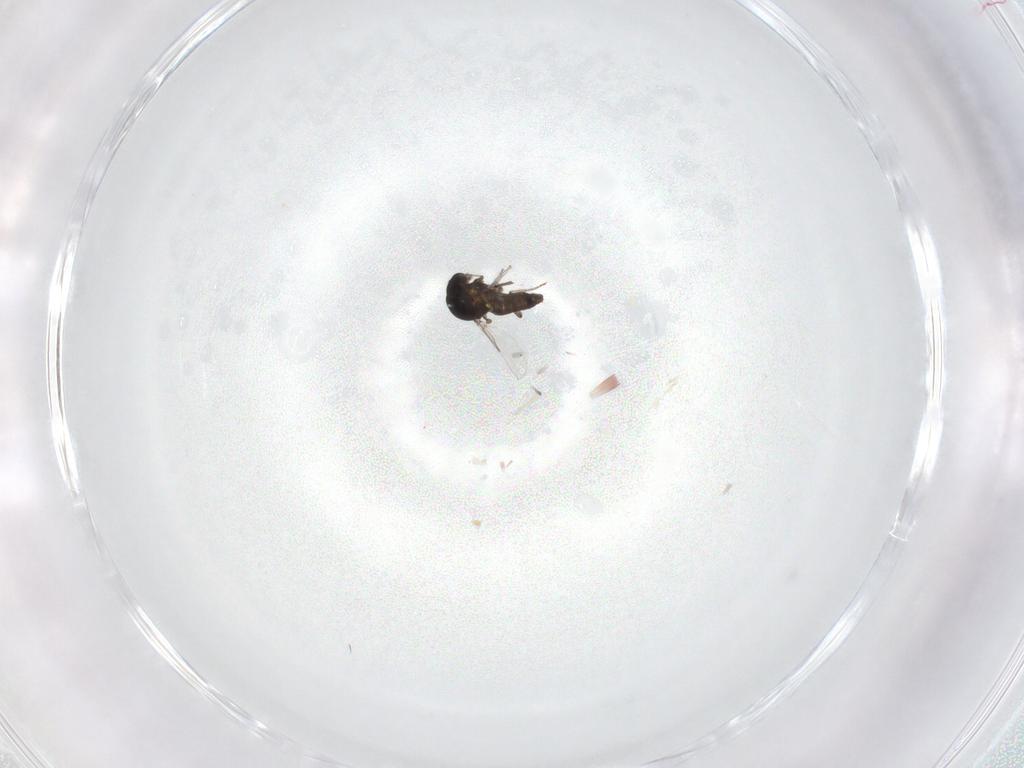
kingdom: Animalia
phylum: Arthropoda
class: Insecta
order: Diptera
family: Ceratopogonidae
